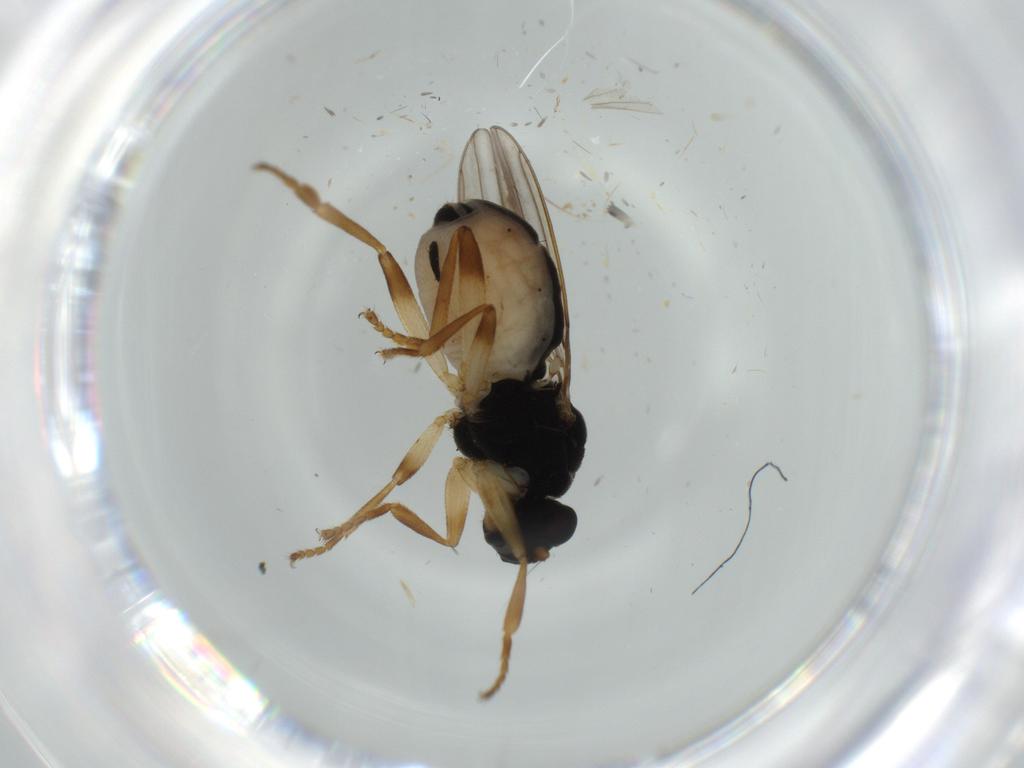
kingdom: Animalia
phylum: Arthropoda
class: Insecta
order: Diptera
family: Chironomidae
